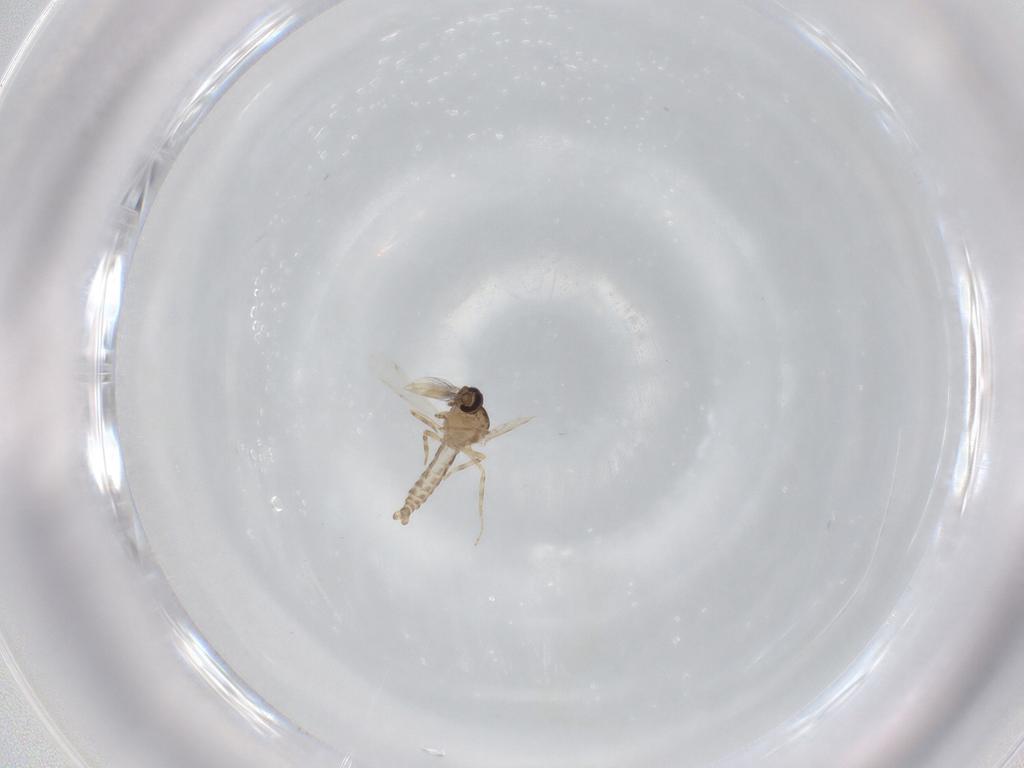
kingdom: Animalia
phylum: Arthropoda
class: Insecta
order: Diptera
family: Ceratopogonidae
